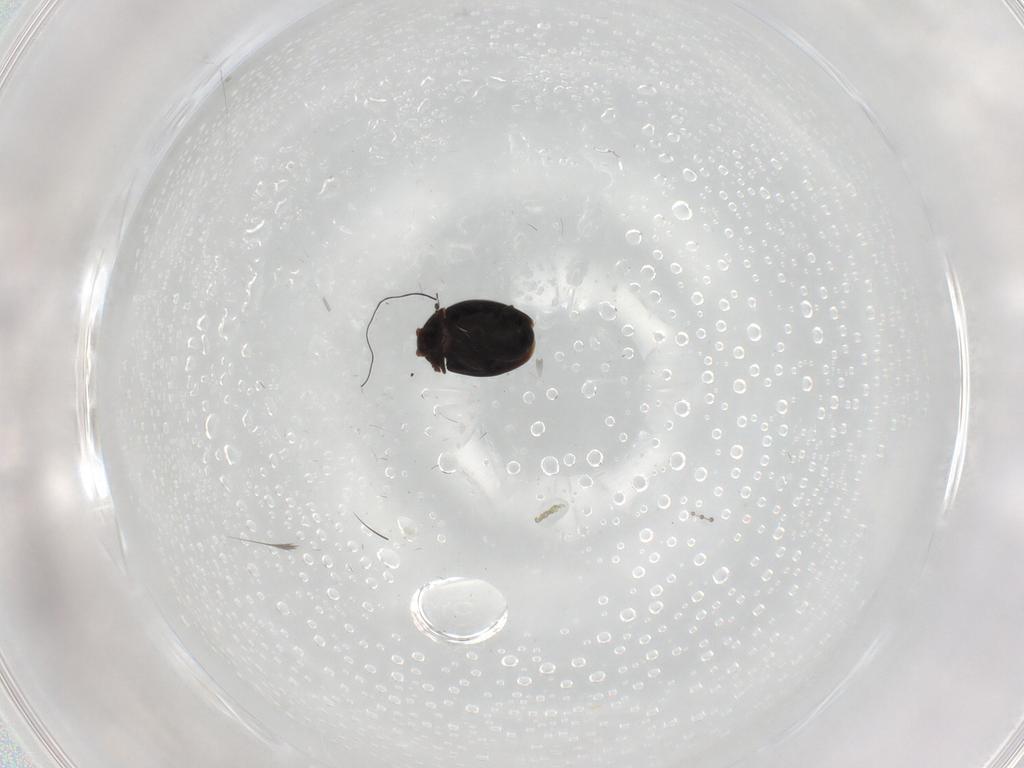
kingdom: Animalia
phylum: Arthropoda
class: Insecta
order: Coleoptera
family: Corylophidae
